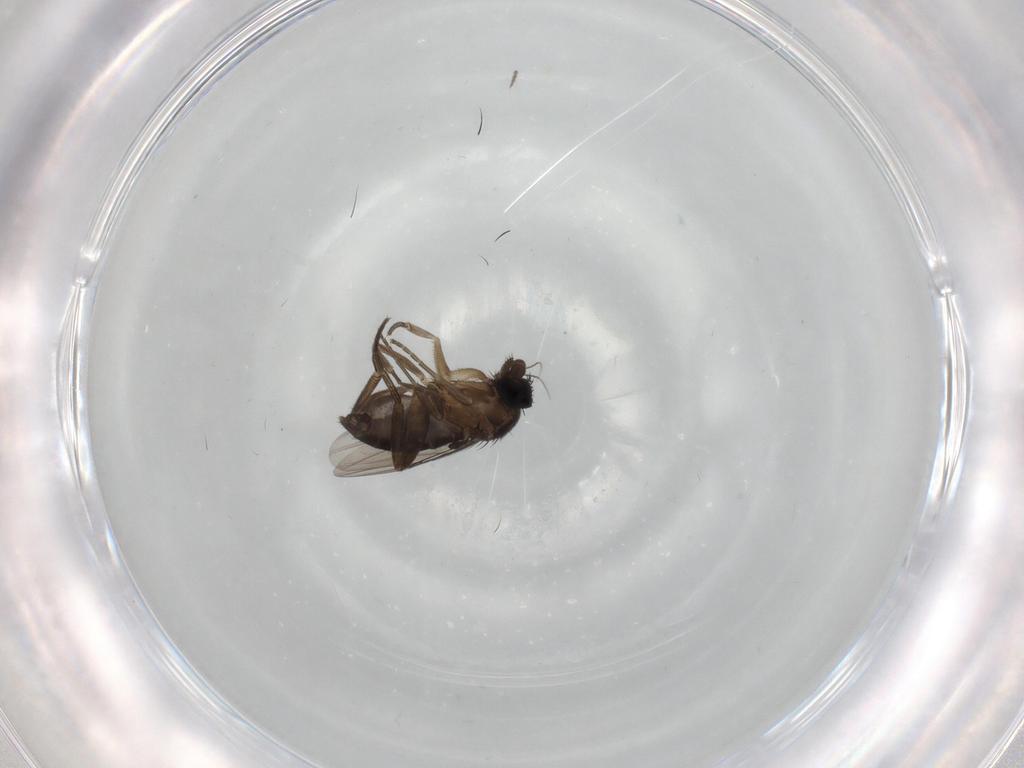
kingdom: Animalia
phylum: Arthropoda
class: Insecta
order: Diptera
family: Phoridae
